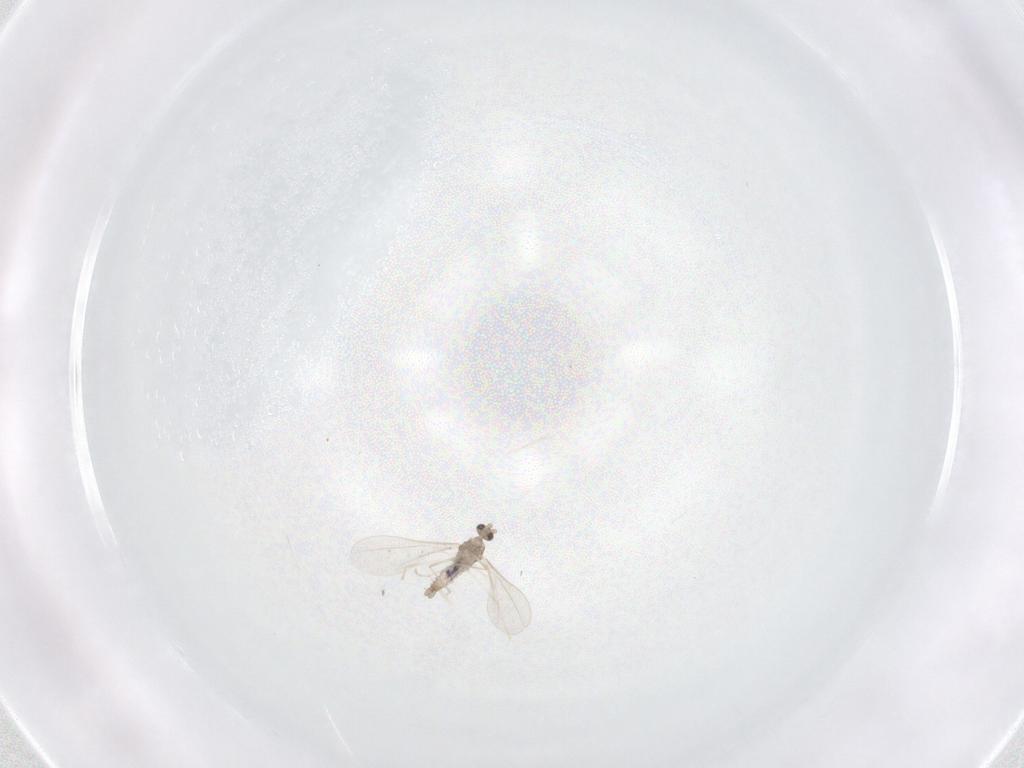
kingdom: Animalia
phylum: Arthropoda
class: Insecta
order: Diptera
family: Cecidomyiidae
